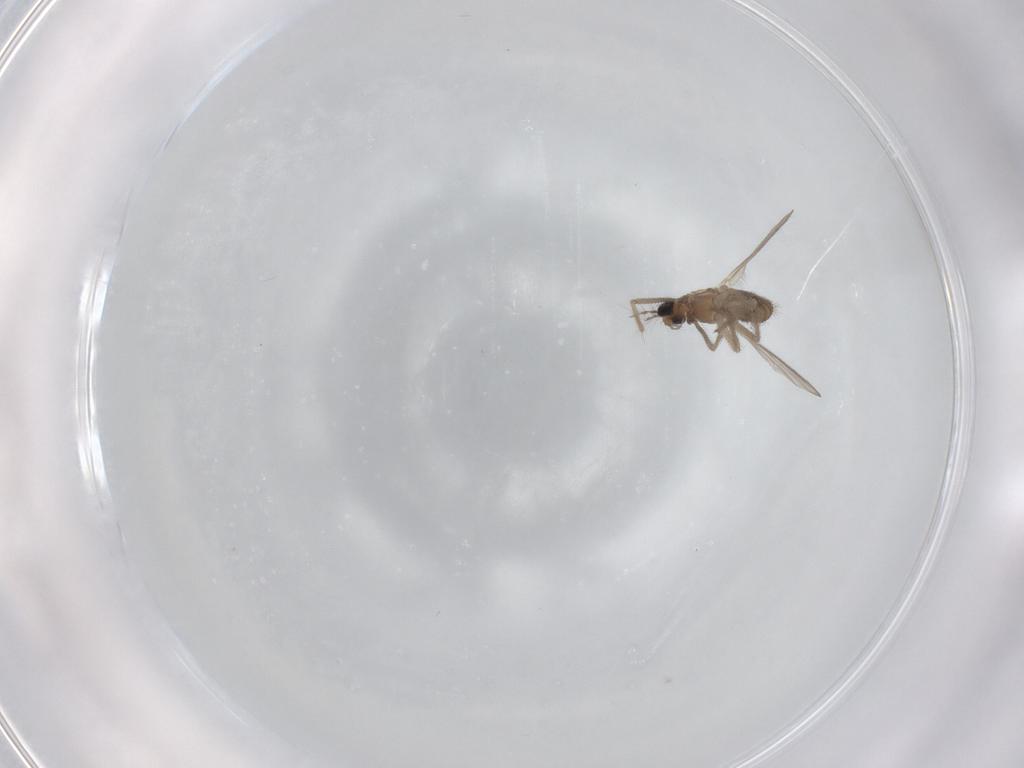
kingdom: Animalia
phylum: Arthropoda
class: Insecta
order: Diptera
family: Chironomidae
